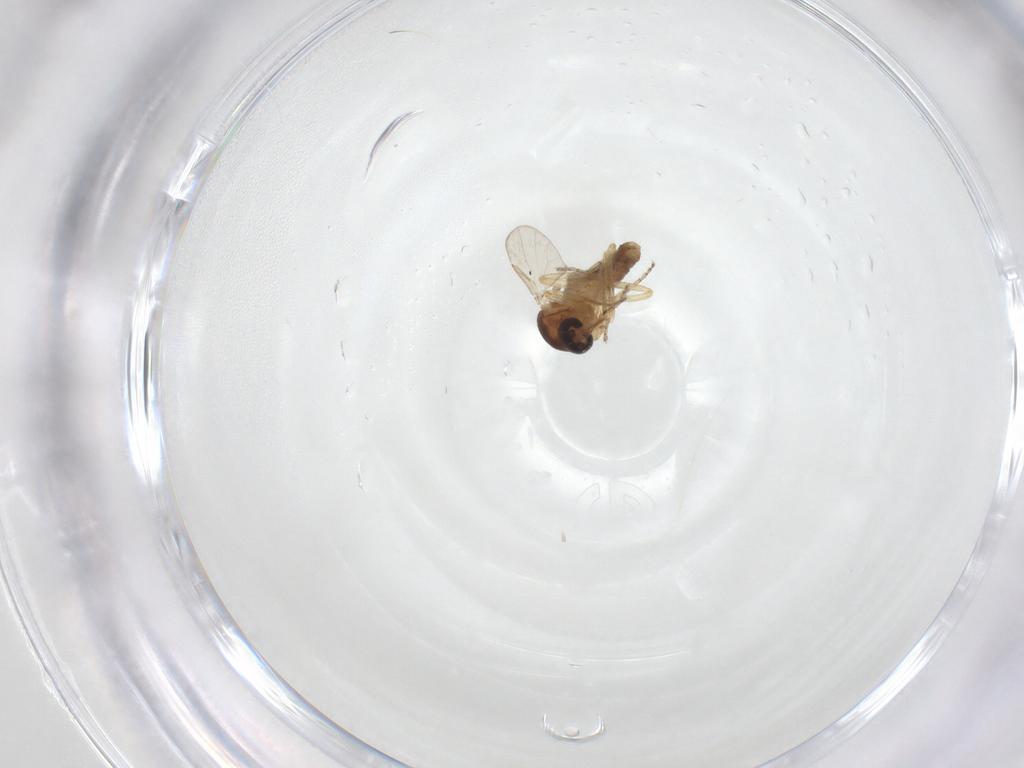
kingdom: Animalia
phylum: Arthropoda
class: Insecta
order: Diptera
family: Ceratopogonidae
